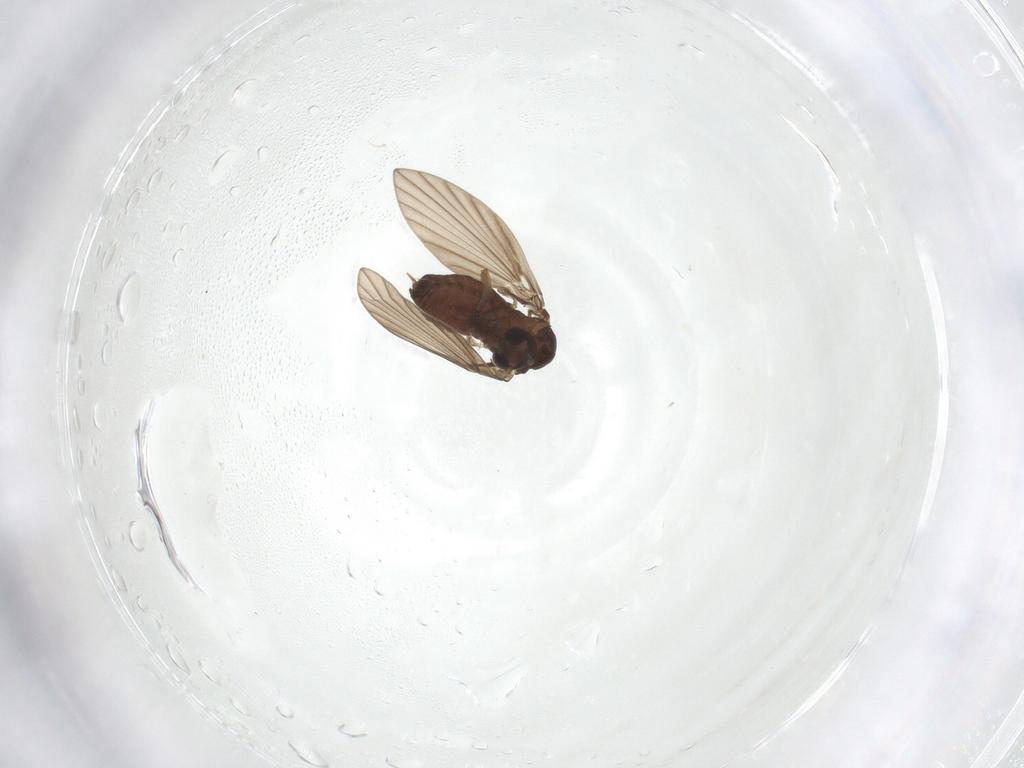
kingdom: Animalia
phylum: Arthropoda
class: Insecta
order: Diptera
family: Psychodidae
